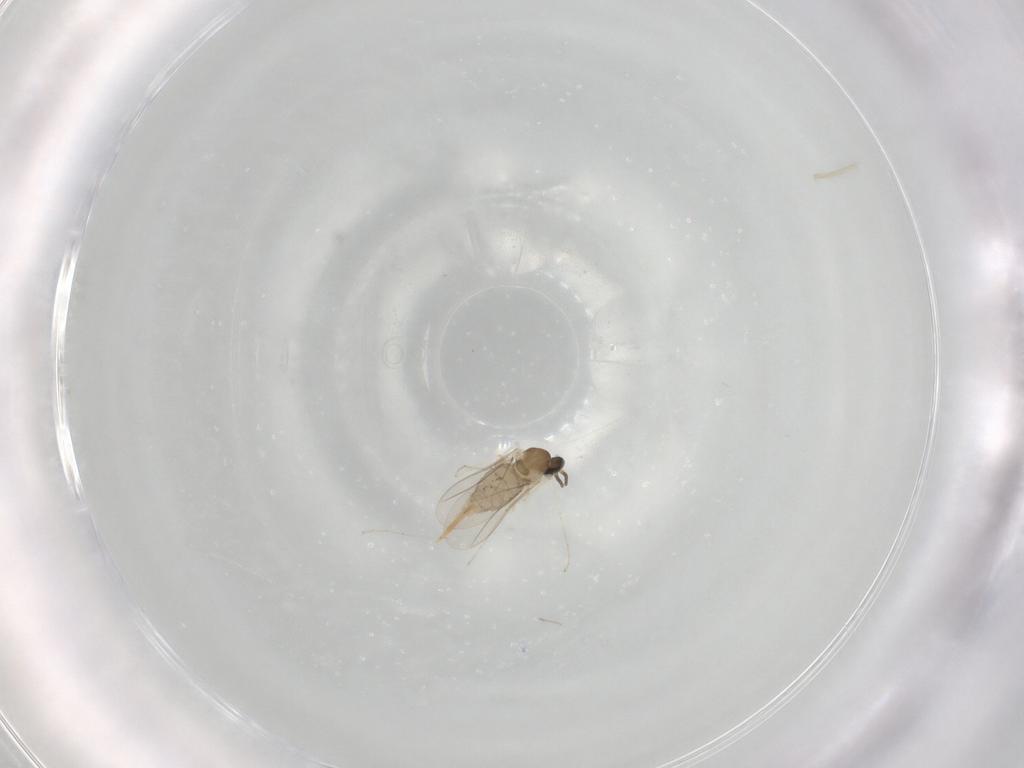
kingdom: Animalia
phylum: Arthropoda
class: Insecta
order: Diptera
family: Cecidomyiidae
